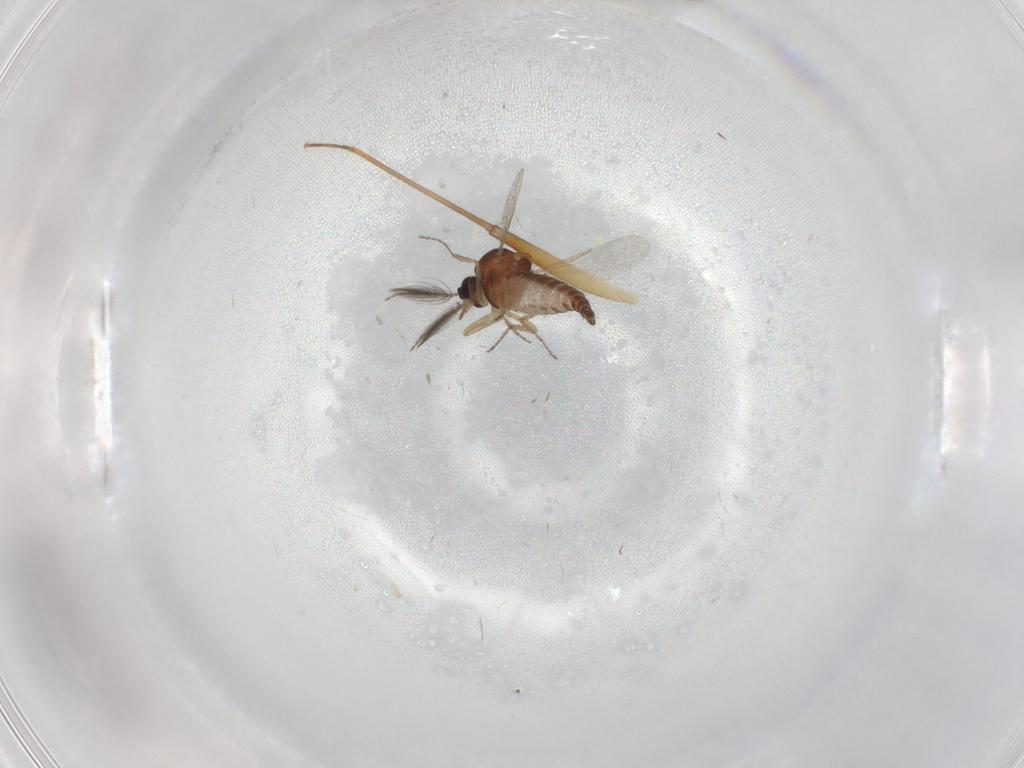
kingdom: Animalia
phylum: Arthropoda
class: Insecta
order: Diptera
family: Ceratopogonidae
